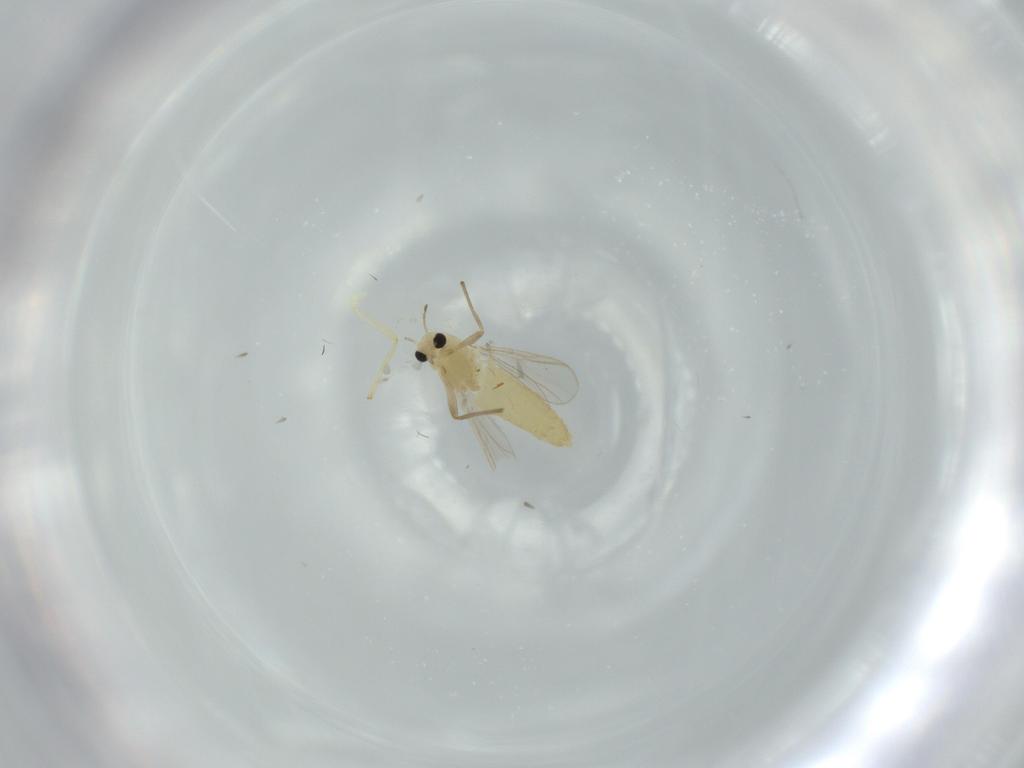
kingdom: Animalia
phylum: Arthropoda
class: Insecta
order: Diptera
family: Chironomidae
